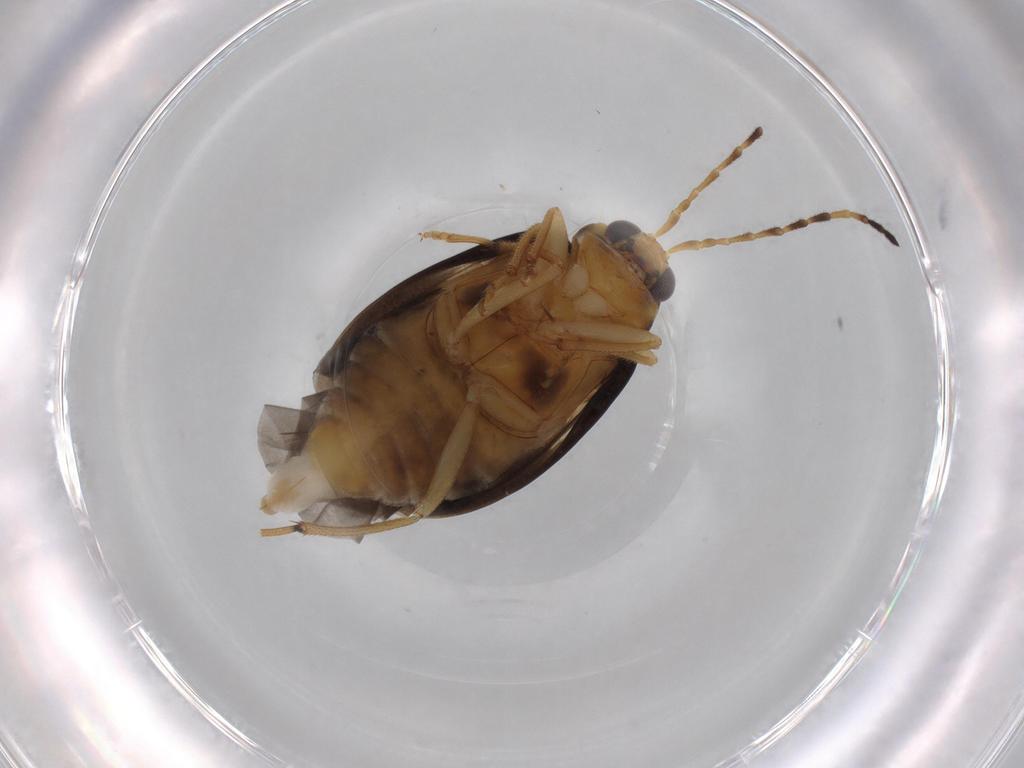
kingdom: Animalia
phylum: Arthropoda
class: Insecta
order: Coleoptera
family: Chrysomelidae
